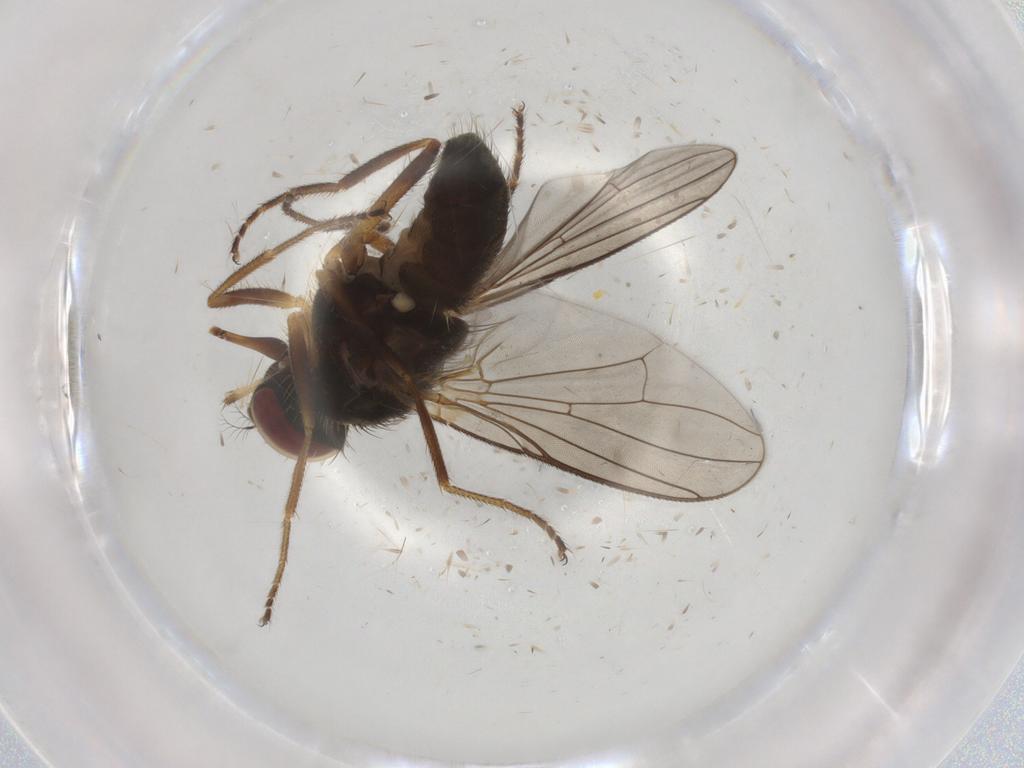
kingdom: Animalia
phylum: Arthropoda
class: Insecta
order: Diptera
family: Muscidae
